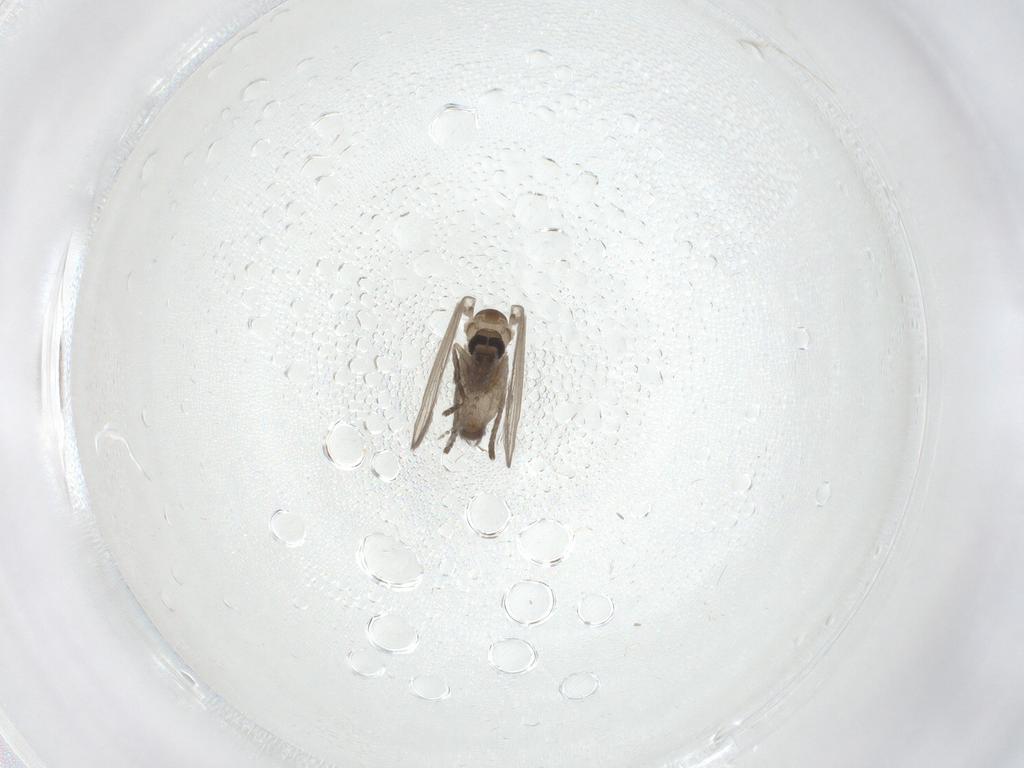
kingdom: Animalia
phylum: Arthropoda
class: Insecta
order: Diptera
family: Psychodidae
